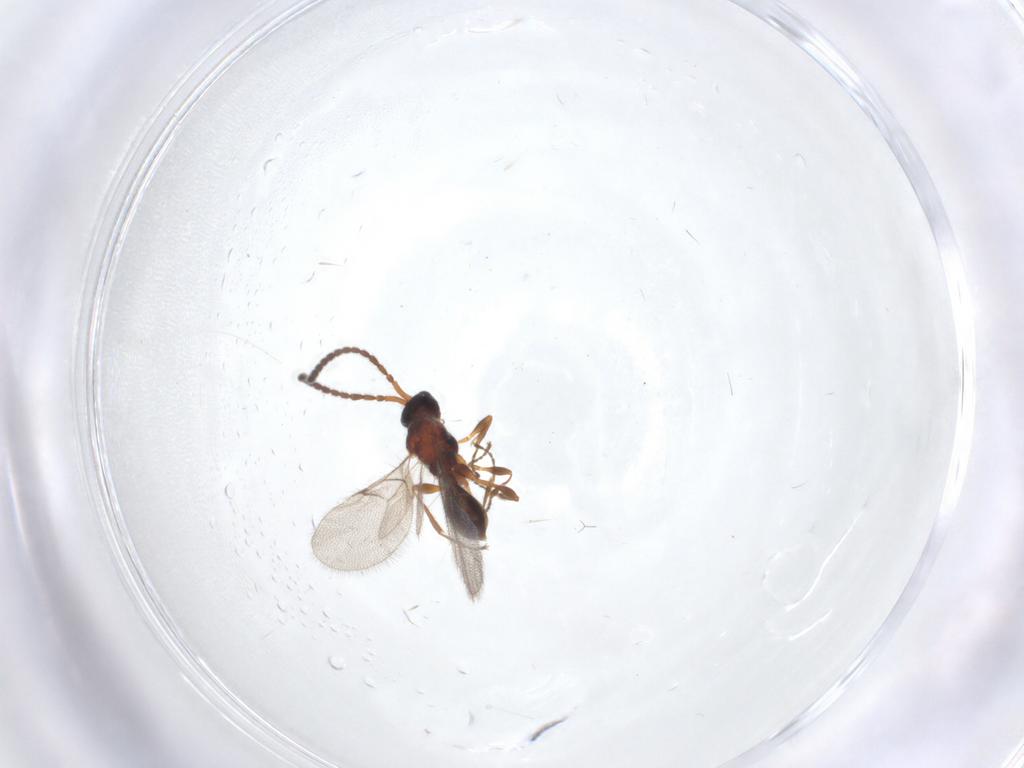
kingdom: Animalia
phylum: Arthropoda
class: Insecta
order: Hymenoptera
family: Diapriidae
